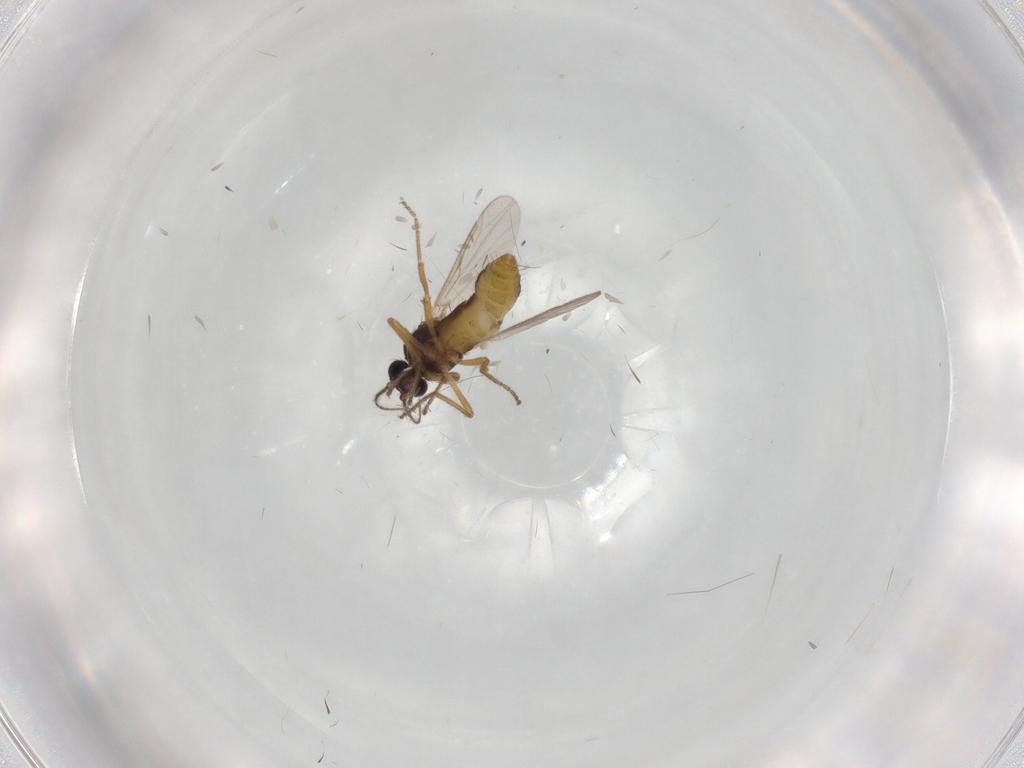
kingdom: Animalia
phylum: Arthropoda
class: Insecta
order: Diptera
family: Ceratopogonidae
